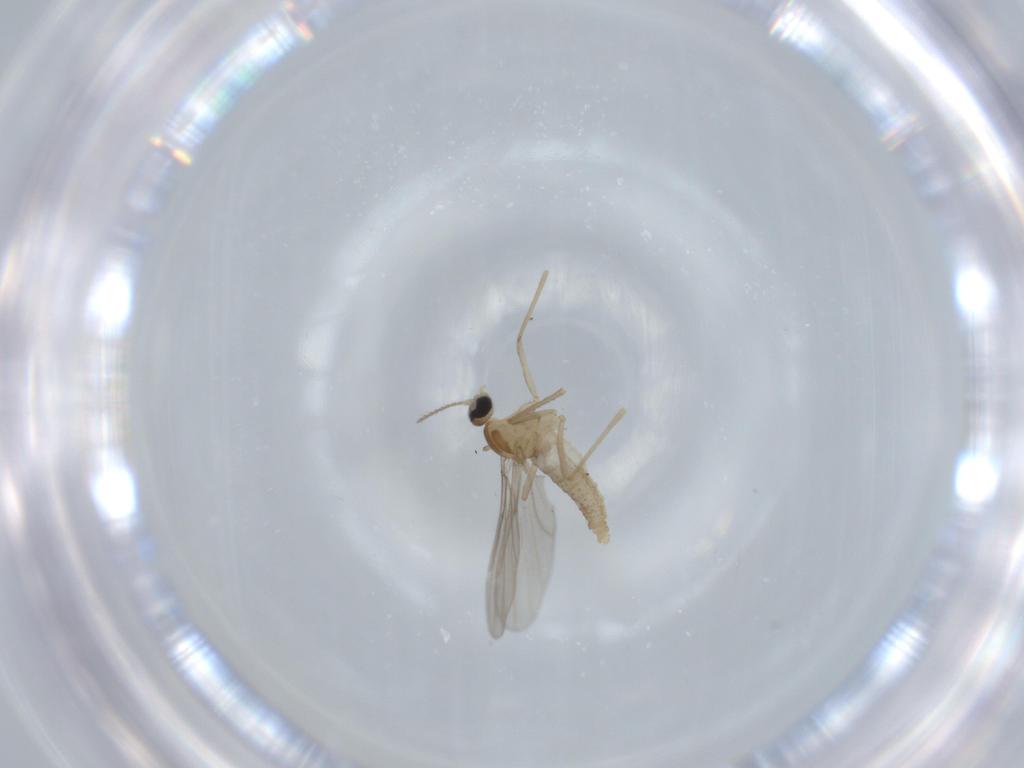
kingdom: Animalia
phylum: Arthropoda
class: Insecta
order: Diptera
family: Cecidomyiidae
